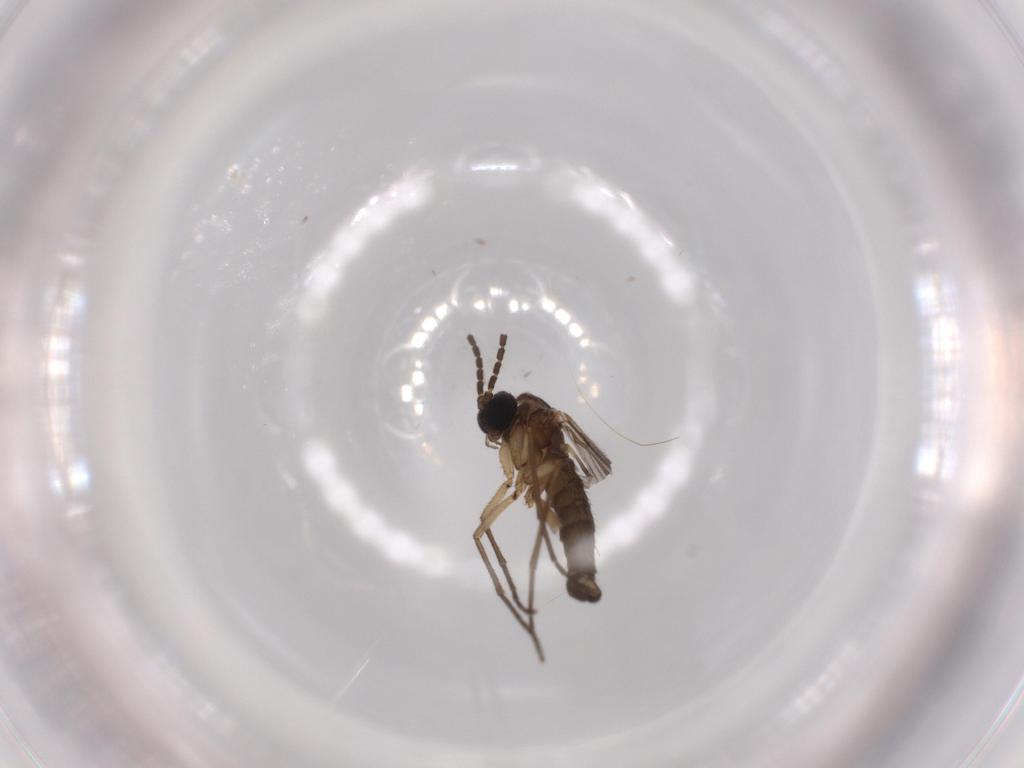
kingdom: Animalia
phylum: Arthropoda
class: Insecta
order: Diptera
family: Sciaridae
